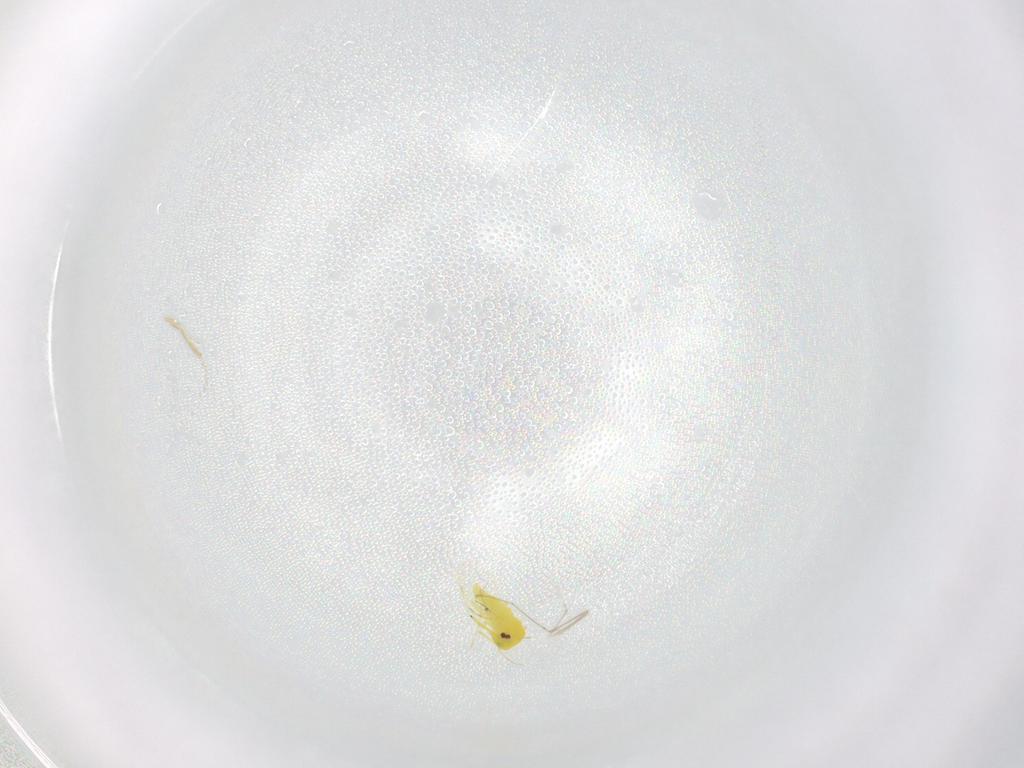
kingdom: Animalia
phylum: Arthropoda
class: Insecta
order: Hemiptera
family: Aleyrodidae
